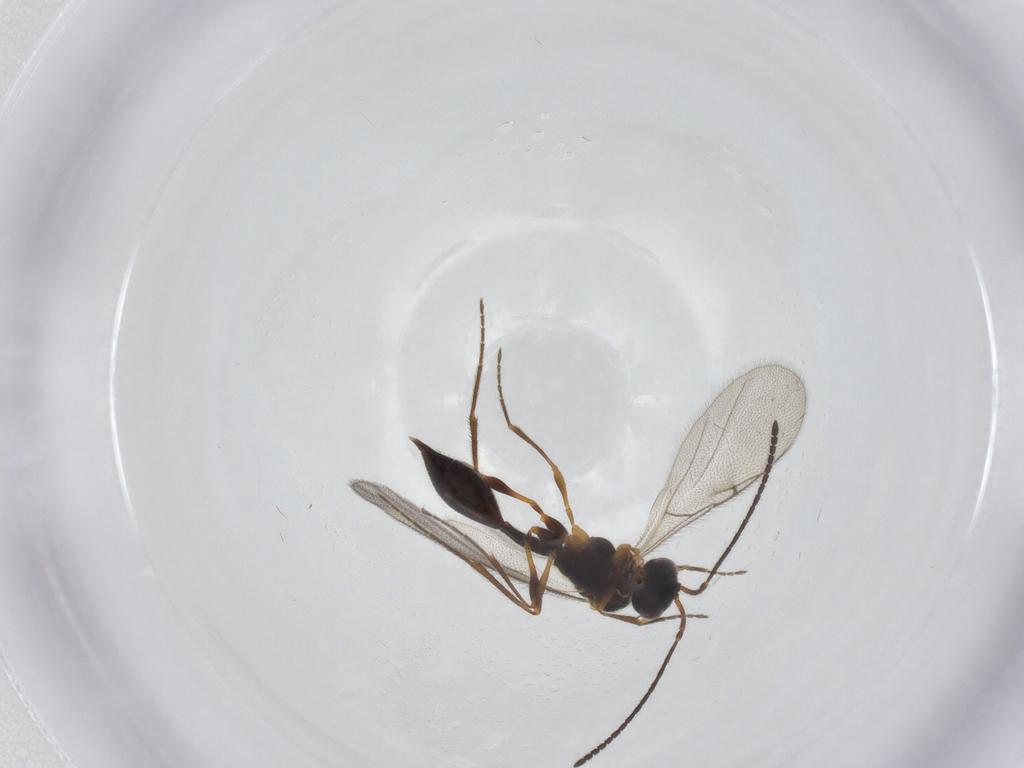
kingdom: Animalia
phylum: Arthropoda
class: Insecta
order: Hymenoptera
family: Diapriidae
